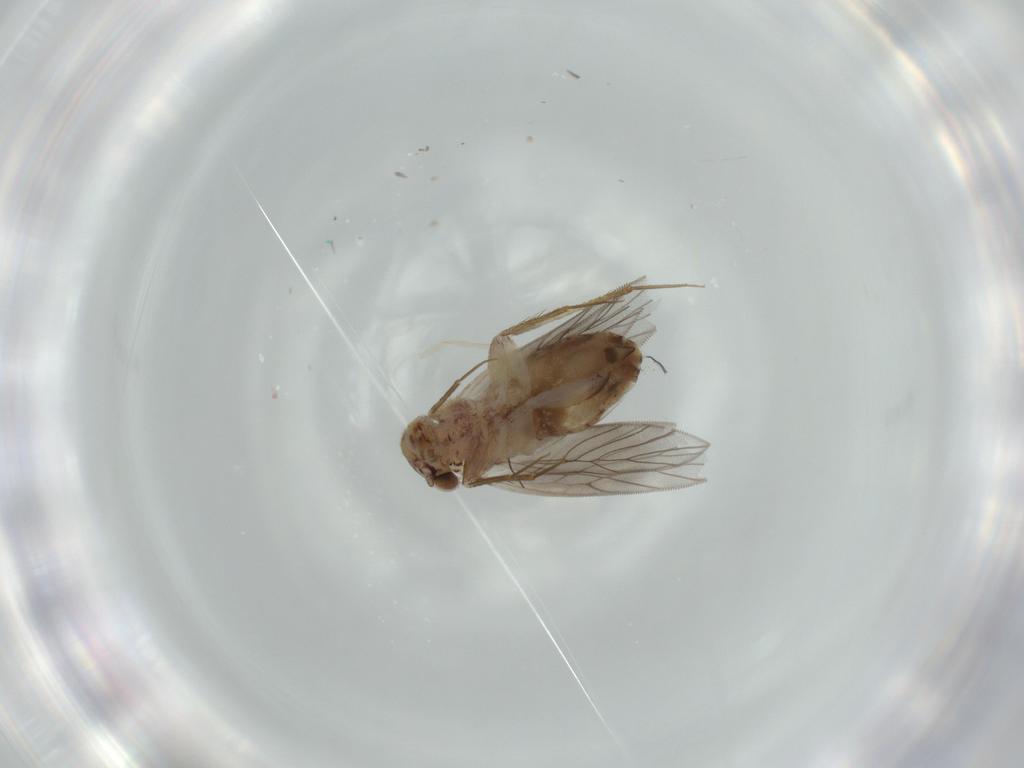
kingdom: Animalia
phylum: Arthropoda
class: Insecta
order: Psocodea
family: Lepidopsocidae
